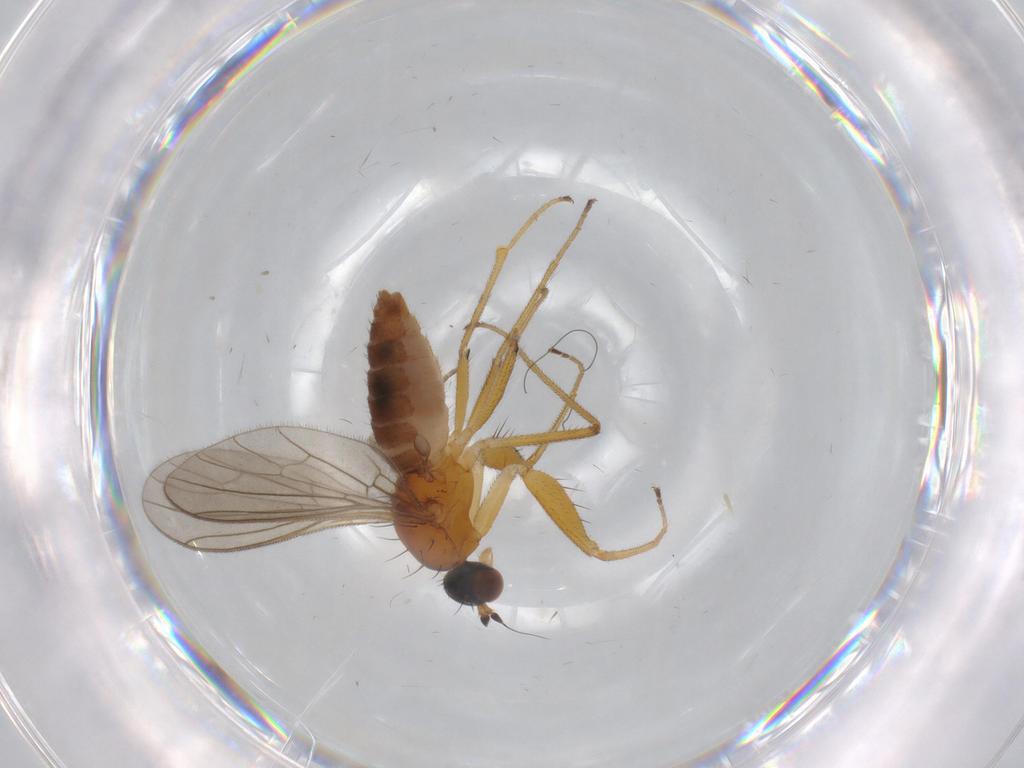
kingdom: Animalia
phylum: Arthropoda
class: Insecta
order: Diptera
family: Empididae
